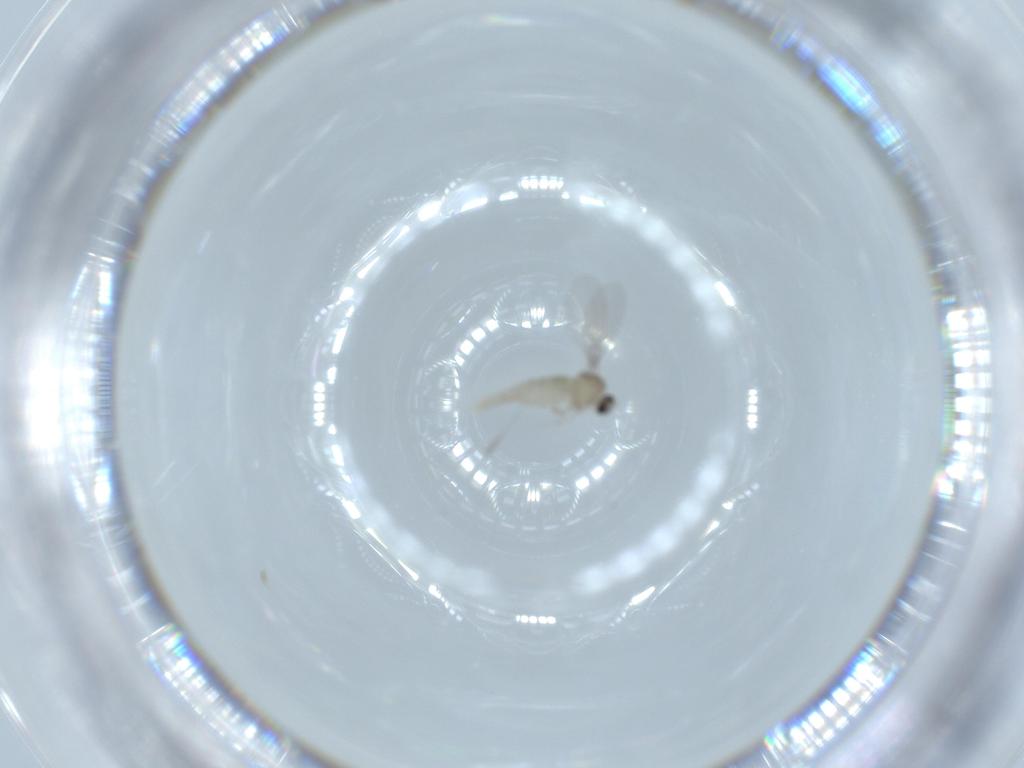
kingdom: Animalia
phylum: Arthropoda
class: Insecta
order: Diptera
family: Cecidomyiidae
